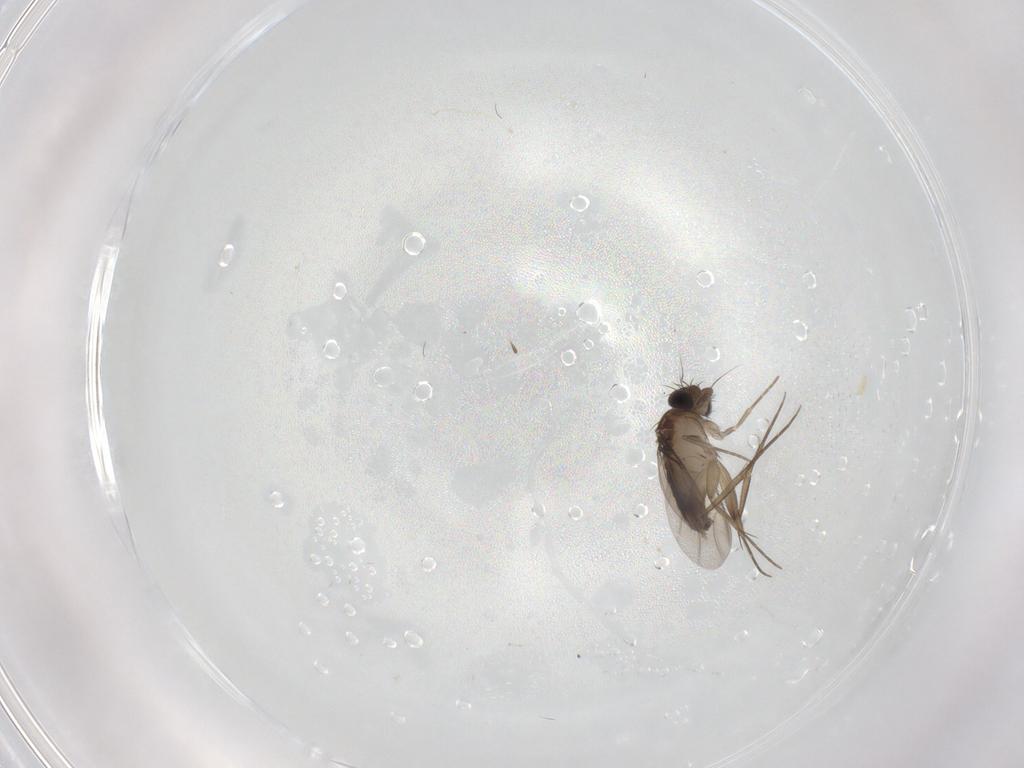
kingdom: Animalia
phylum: Arthropoda
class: Insecta
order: Diptera
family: Phoridae
